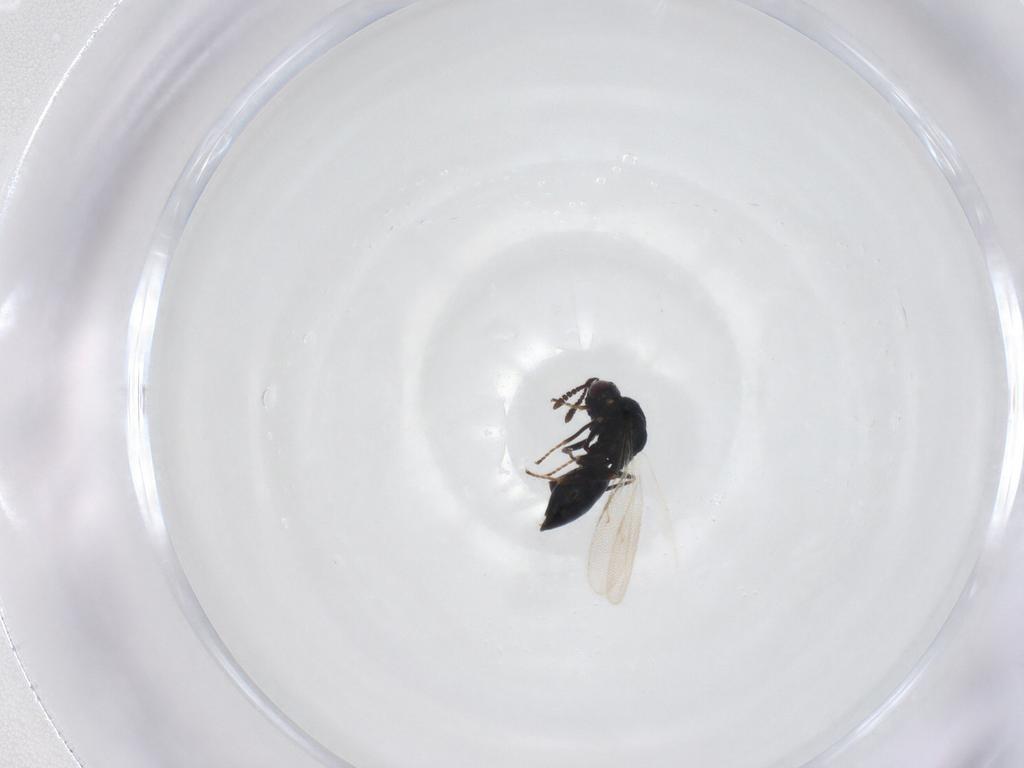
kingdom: Animalia
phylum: Arthropoda
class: Insecta
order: Hymenoptera
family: Pteromalidae
